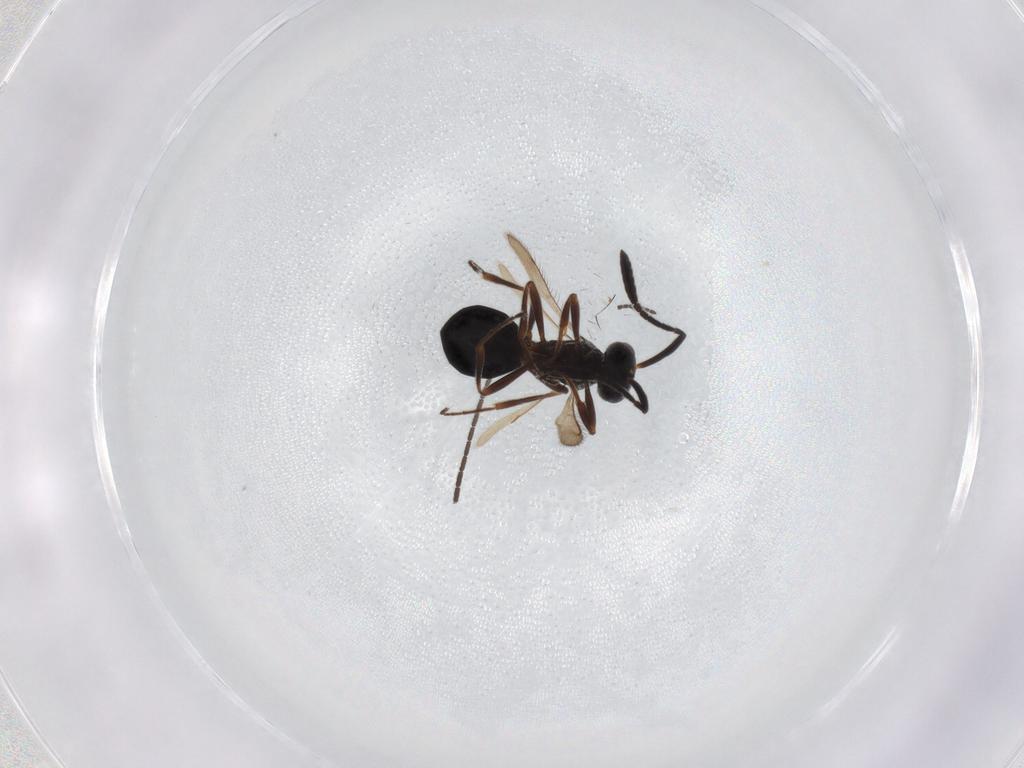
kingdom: Animalia
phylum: Arthropoda
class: Insecta
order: Hymenoptera
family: Scelionidae
